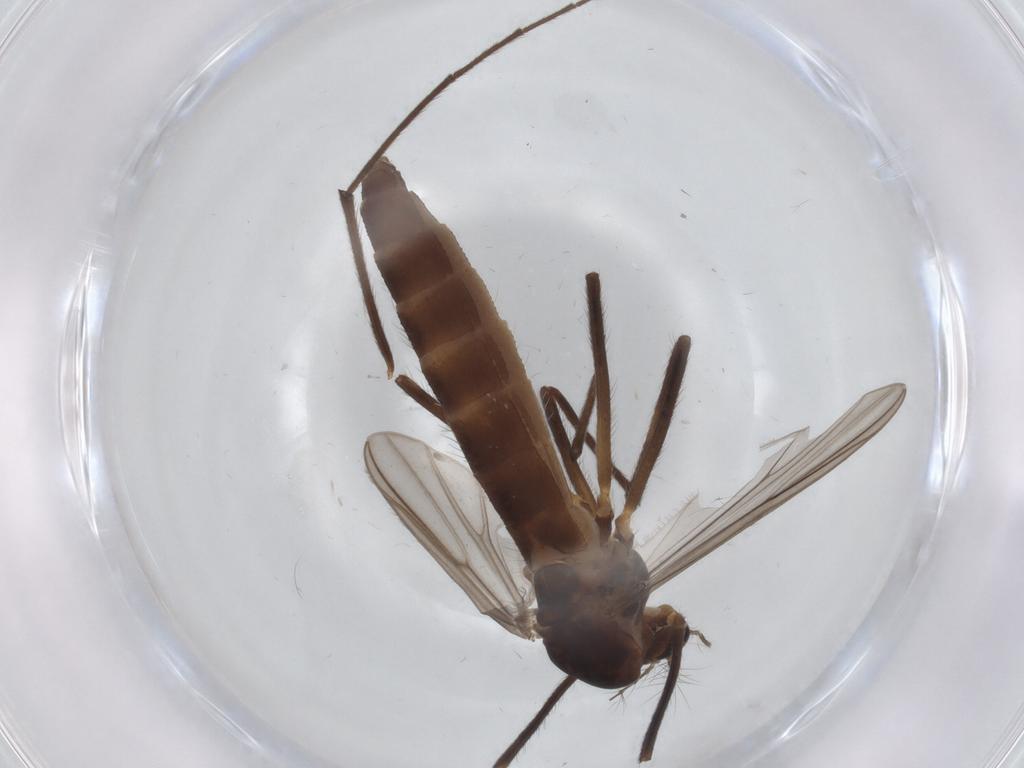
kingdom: Animalia
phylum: Arthropoda
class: Insecta
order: Diptera
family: Chironomidae
